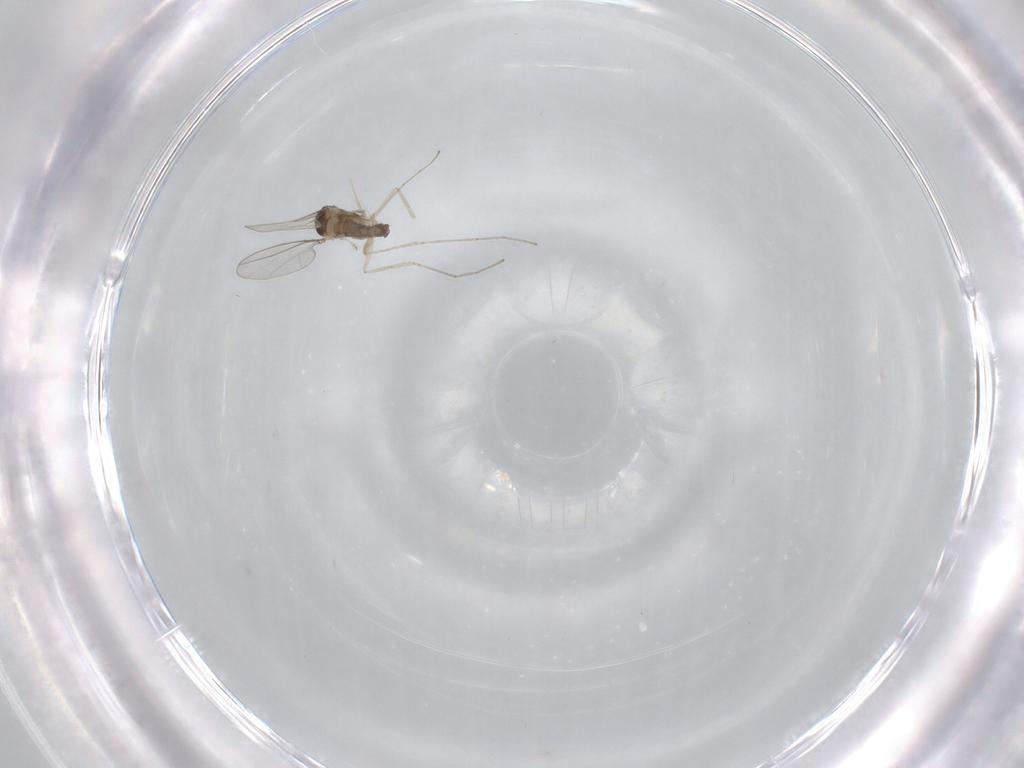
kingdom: Animalia
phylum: Arthropoda
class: Insecta
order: Diptera
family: Cecidomyiidae
